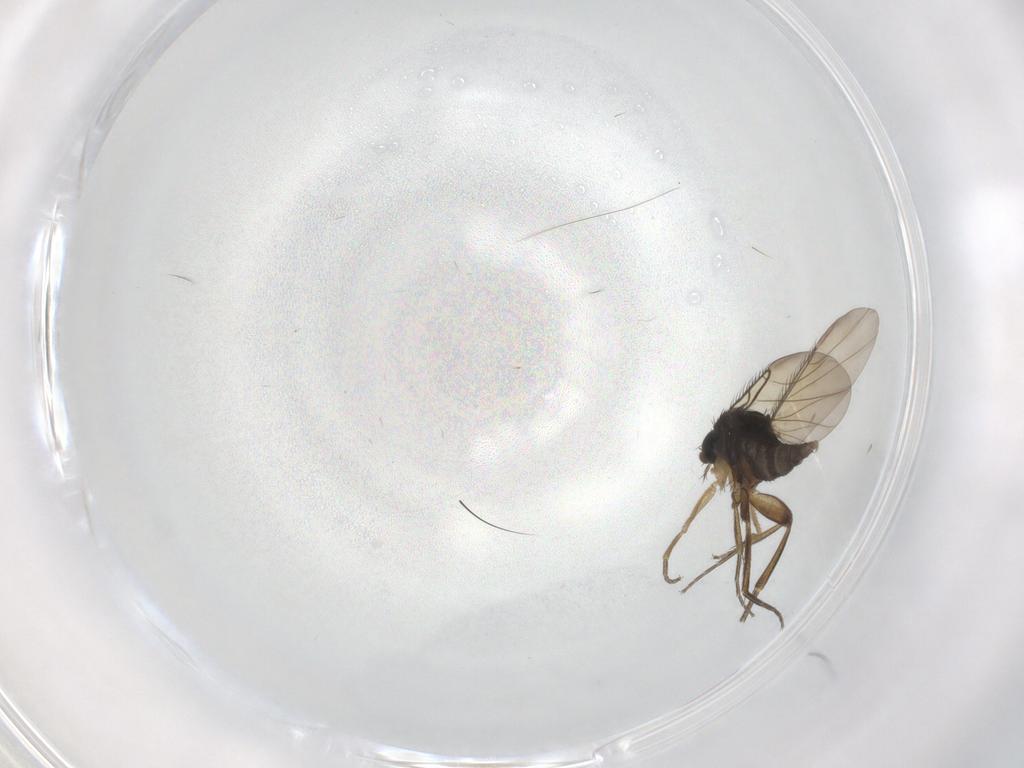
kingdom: Animalia
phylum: Arthropoda
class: Insecta
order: Diptera
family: Phoridae
